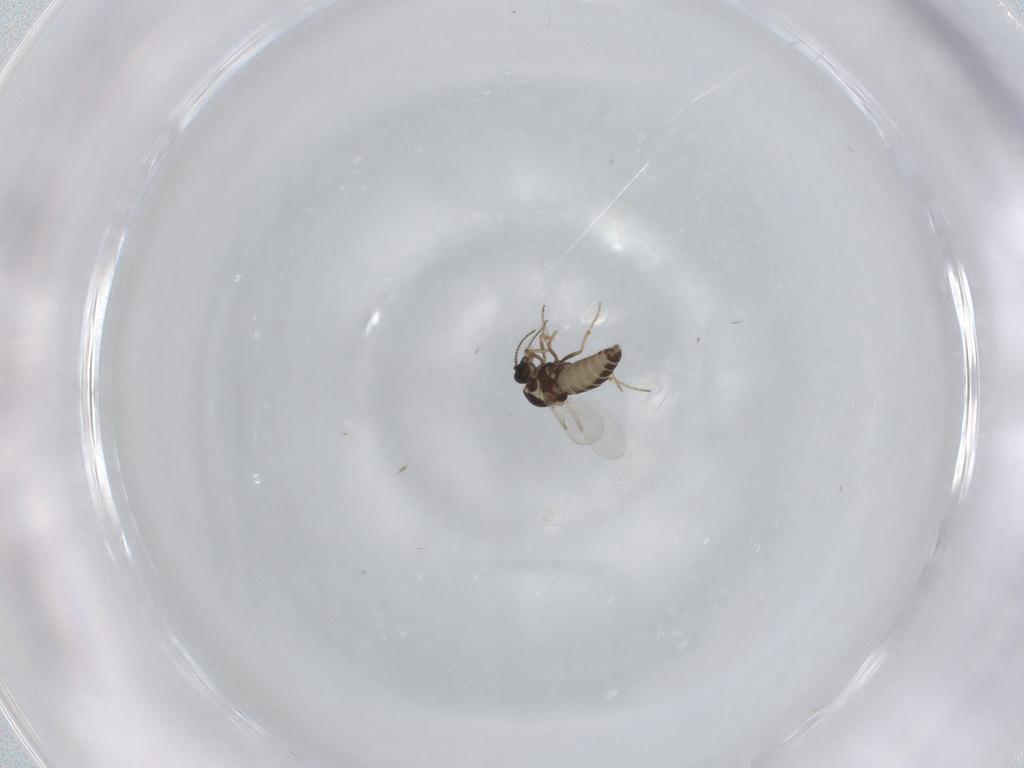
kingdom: Animalia
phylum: Arthropoda
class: Insecta
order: Diptera
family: Ceratopogonidae
